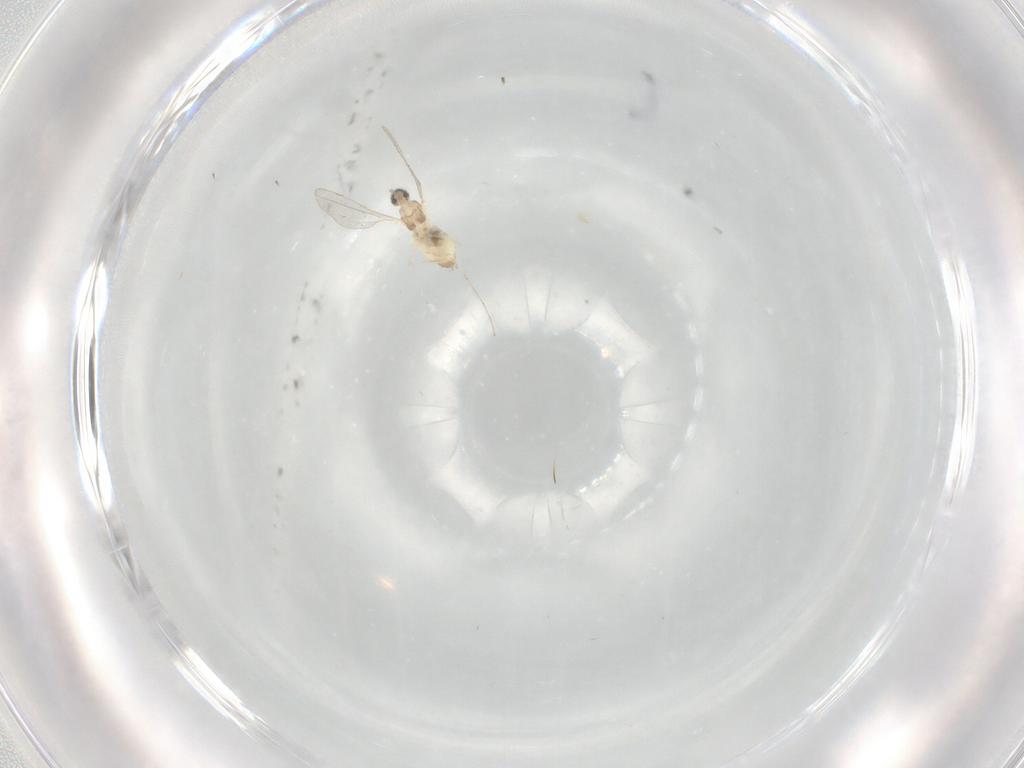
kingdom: Animalia
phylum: Arthropoda
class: Insecta
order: Diptera
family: Cecidomyiidae
